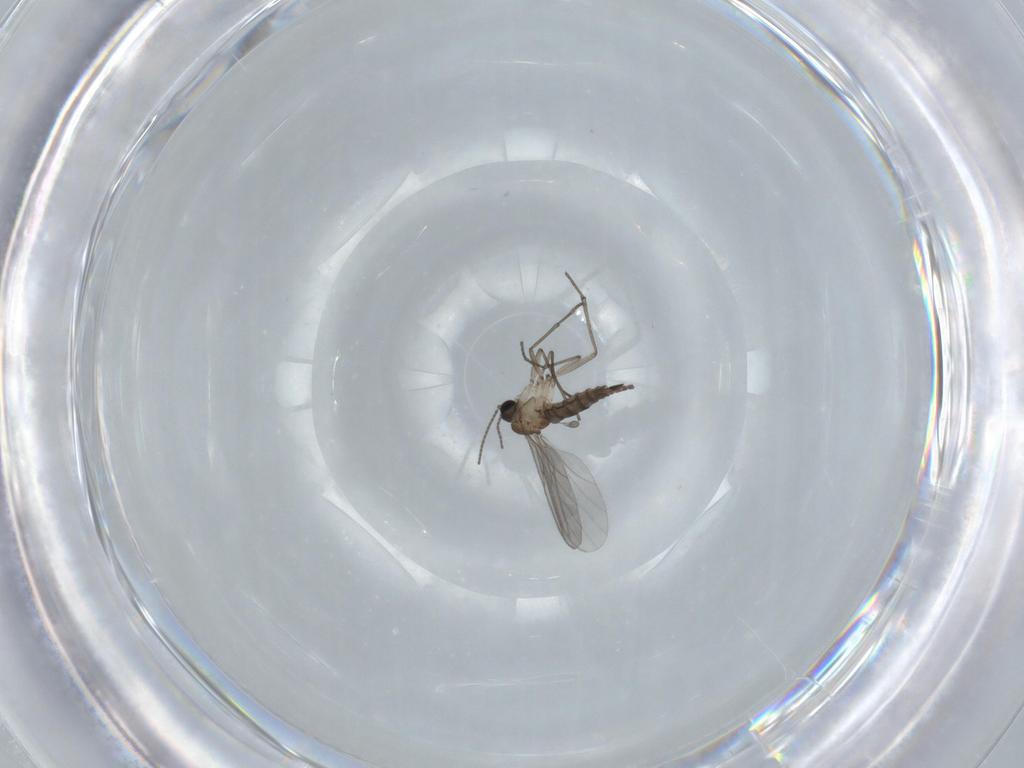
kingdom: Animalia
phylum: Arthropoda
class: Insecta
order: Diptera
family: Sciaridae
